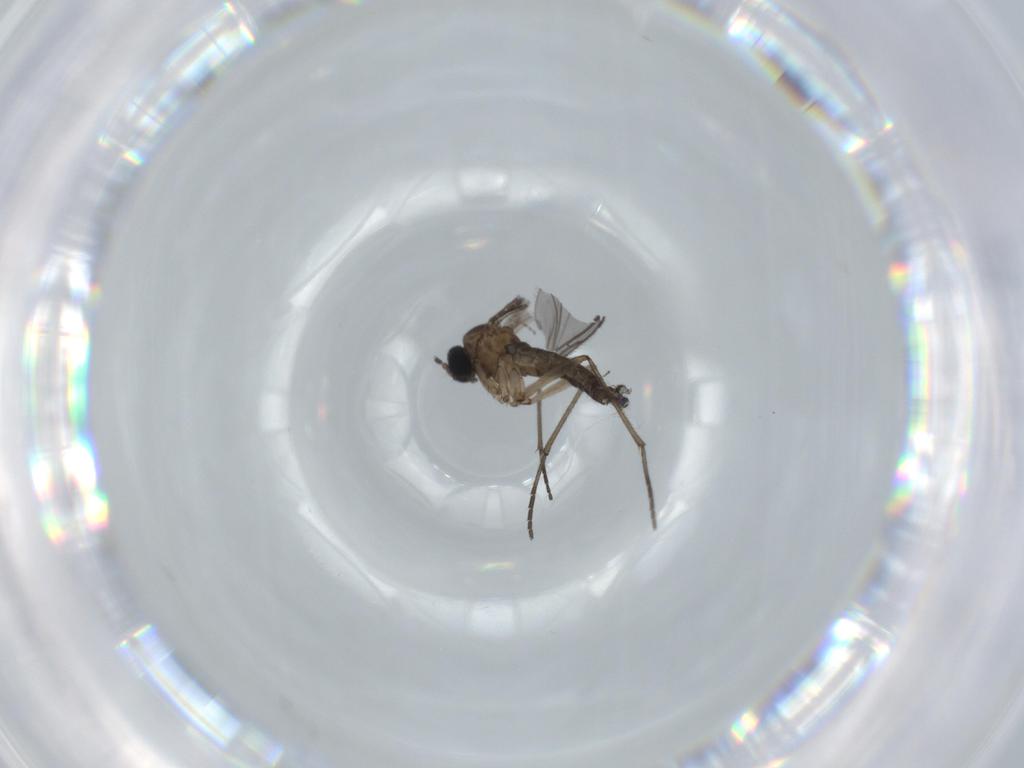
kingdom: Animalia
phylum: Arthropoda
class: Insecta
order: Diptera
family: Sciaridae
